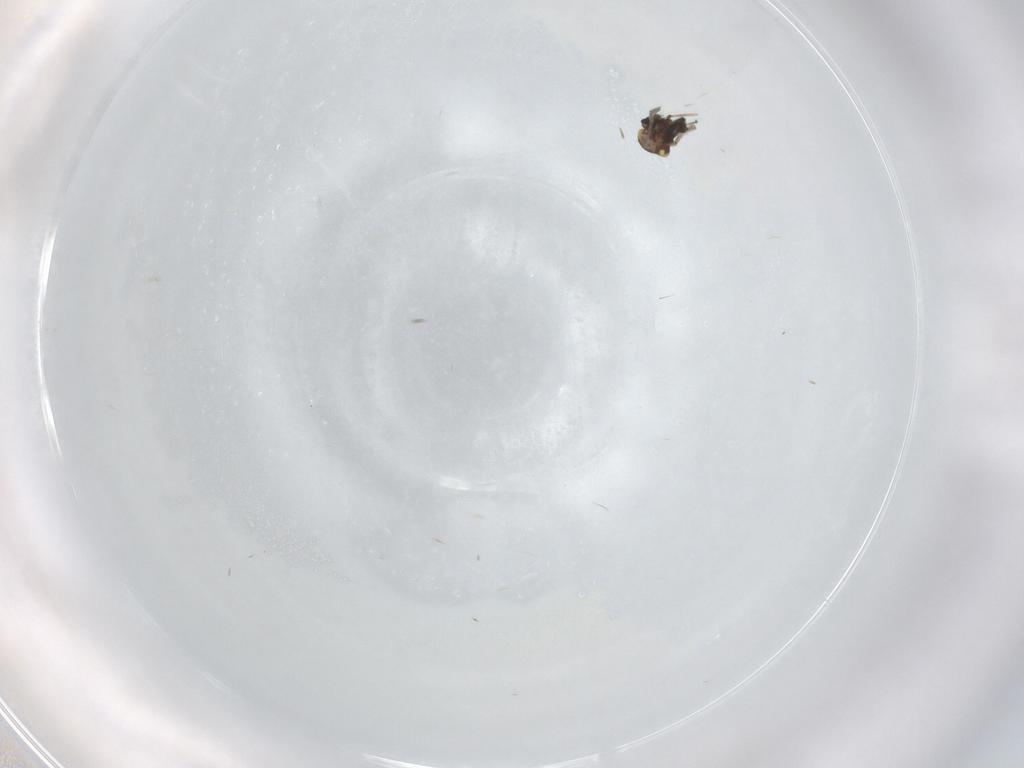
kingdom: Animalia
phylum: Arthropoda
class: Insecta
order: Diptera
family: Ceratopogonidae
